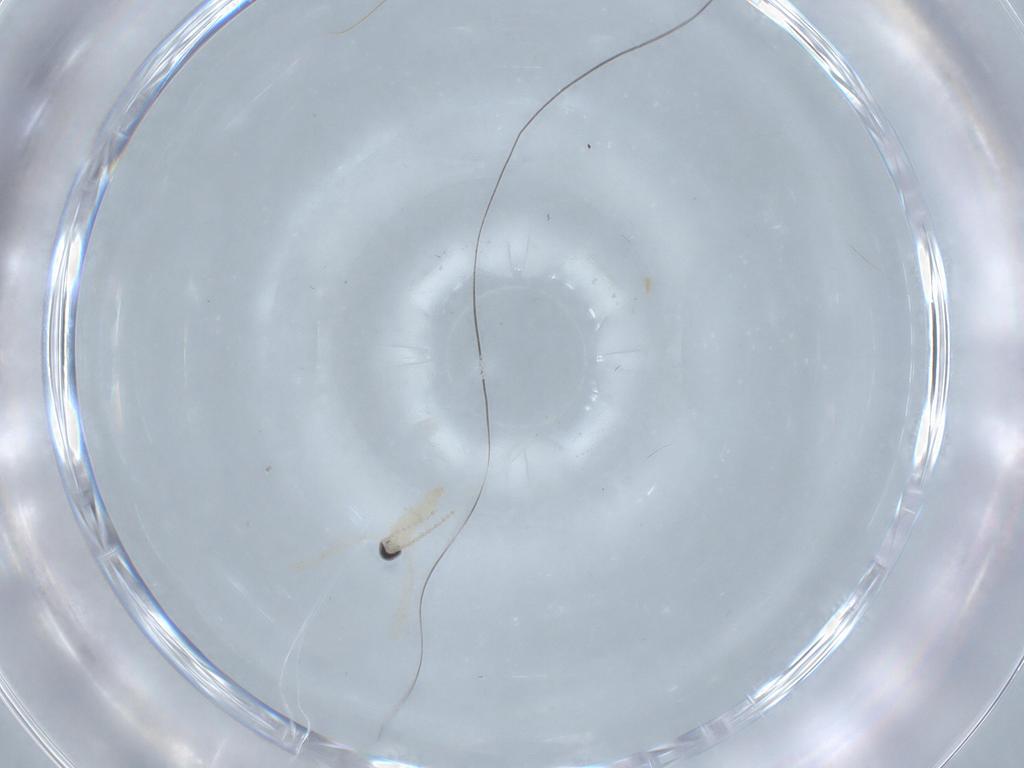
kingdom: Animalia
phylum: Arthropoda
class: Insecta
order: Diptera
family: Cecidomyiidae
